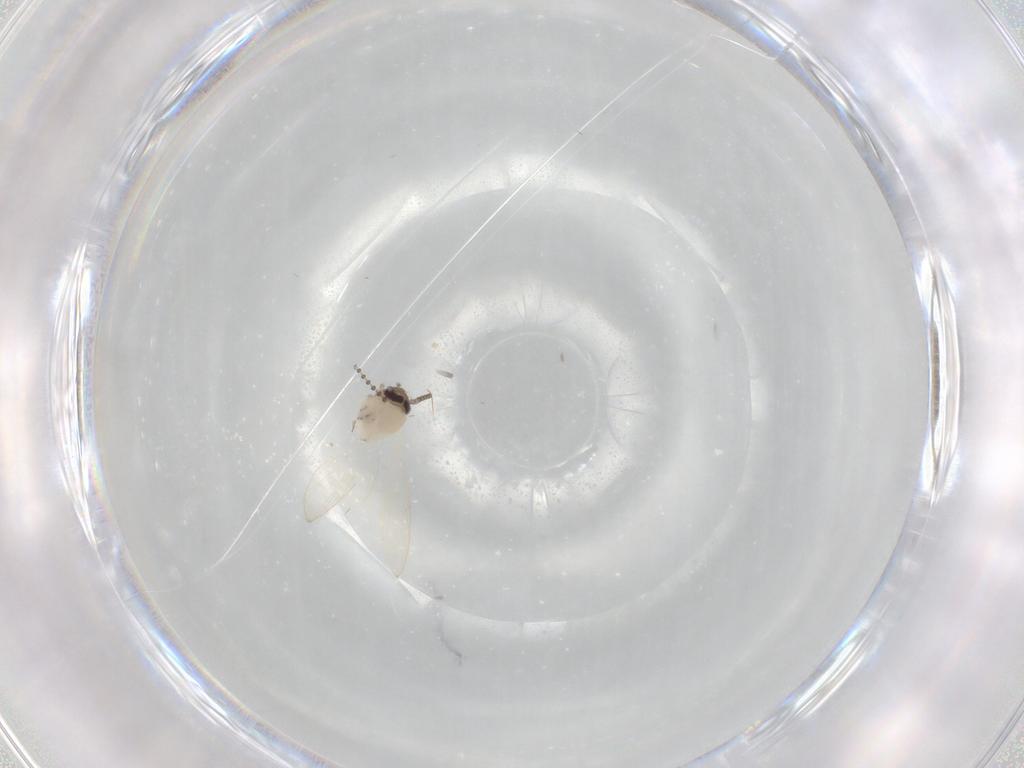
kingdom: Animalia
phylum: Arthropoda
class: Insecta
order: Diptera
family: Psychodidae
